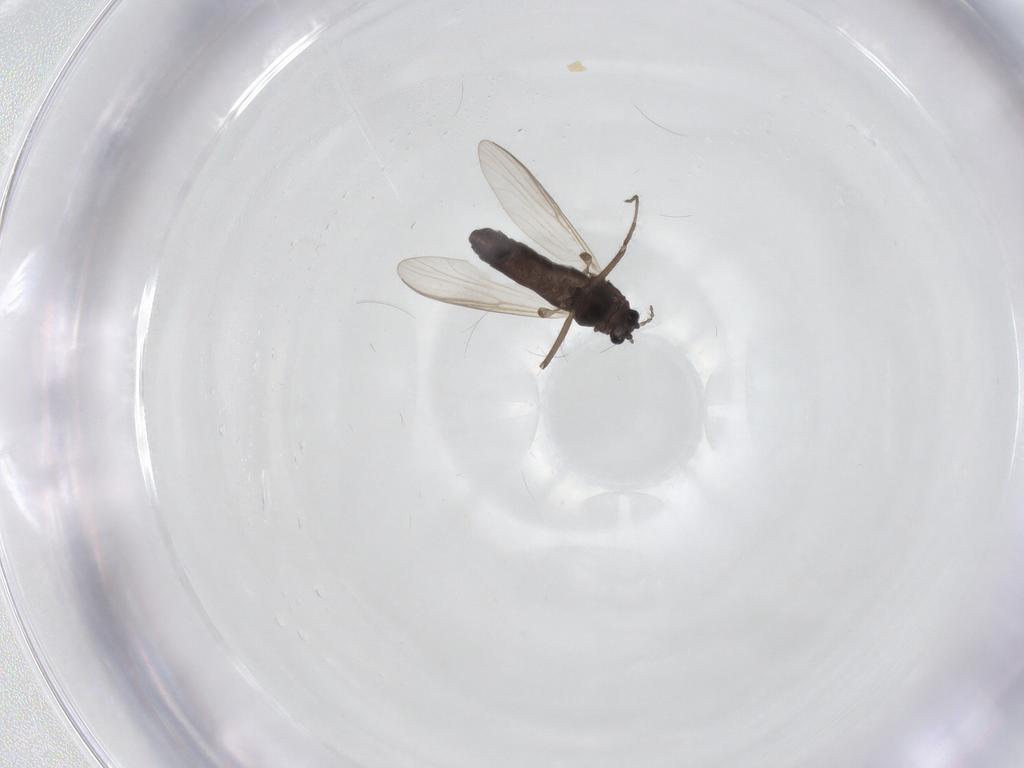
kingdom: Animalia
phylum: Arthropoda
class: Insecta
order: Diptera
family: Chironomidae
